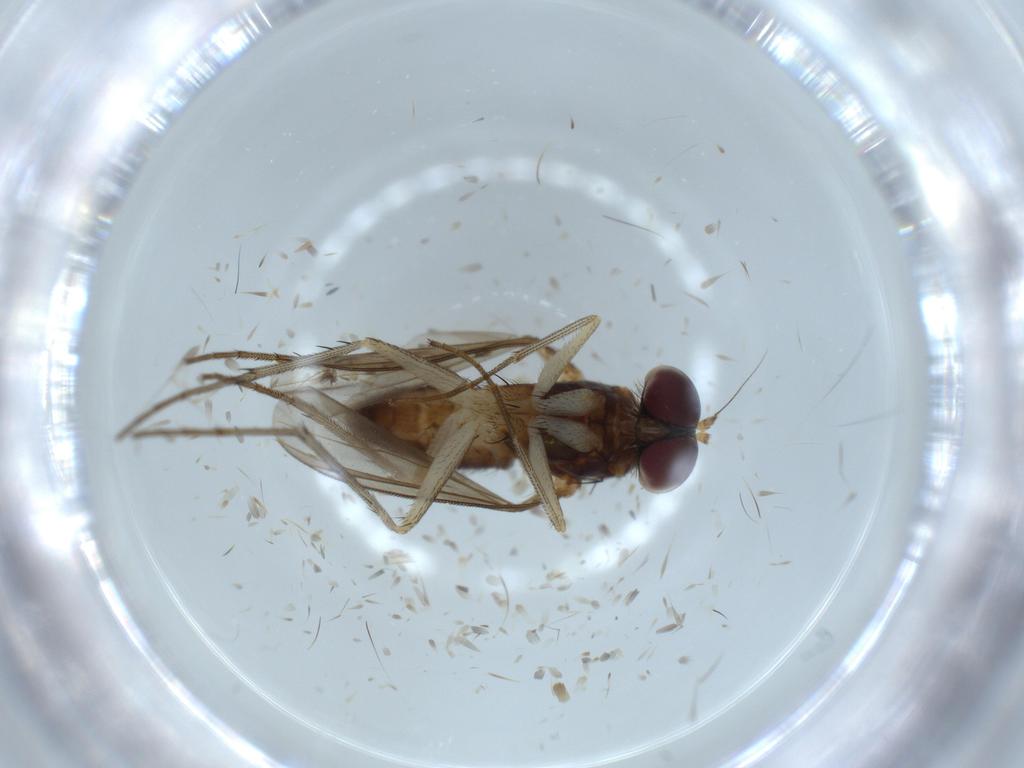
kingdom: Animalia
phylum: Arthropoda
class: Insecta
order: Diptera
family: Dolichopodidae
